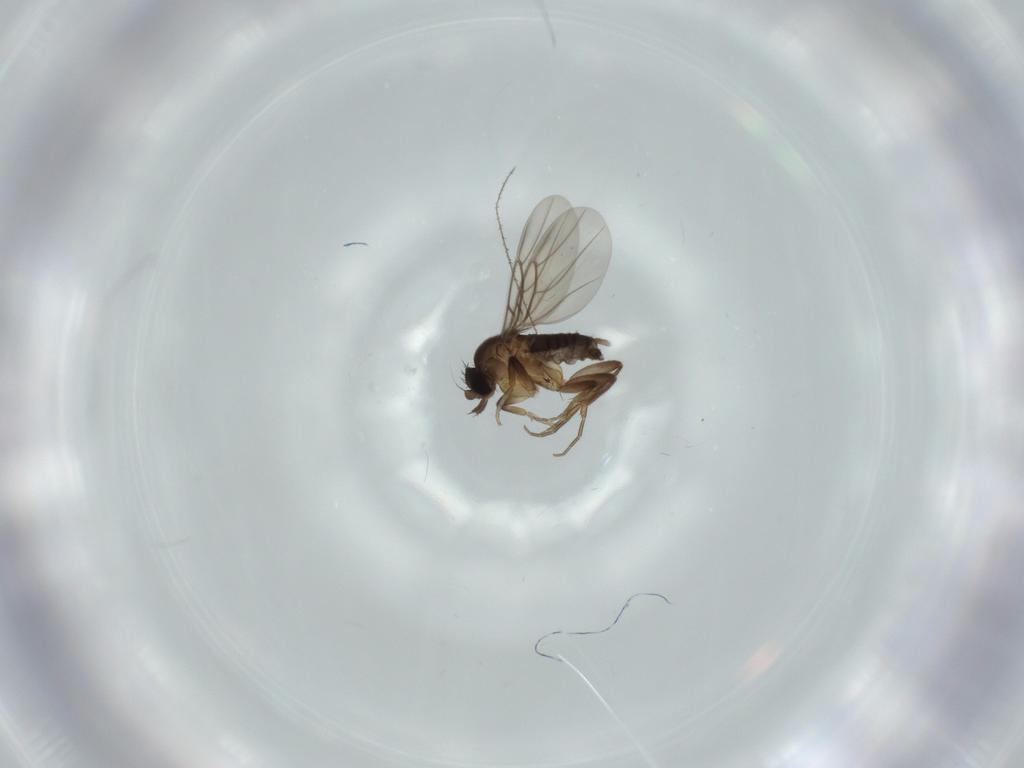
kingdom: Animalia
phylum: Arthropoda
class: Insecta
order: Diptera
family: Phoridae
